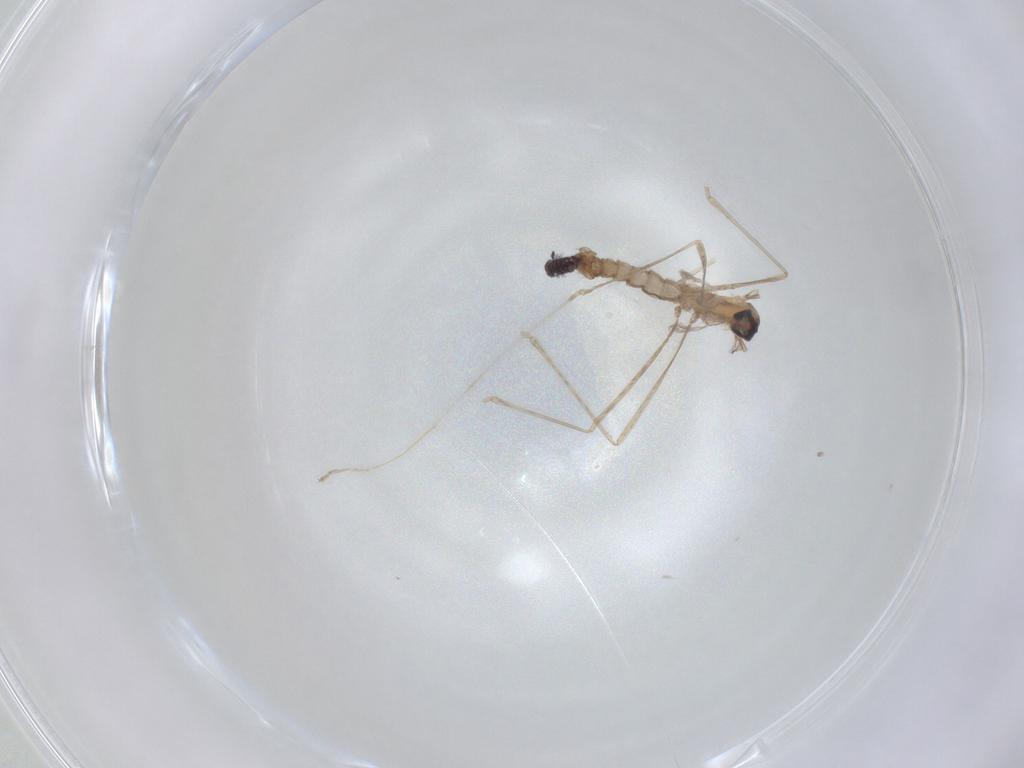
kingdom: Animalia
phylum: Arthropoda
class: Insecta
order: Diptera
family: Cecidomyiidae
